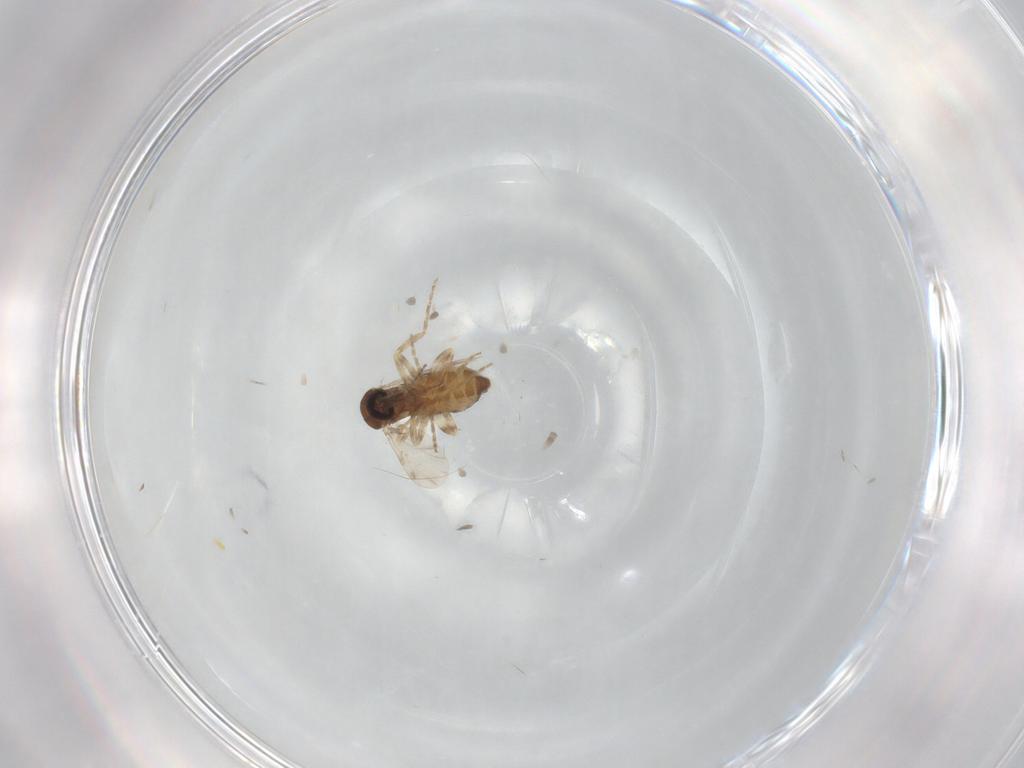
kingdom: Animalia
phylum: Arthropoda
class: Insecta
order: Diptera
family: Ceratopogonidae
